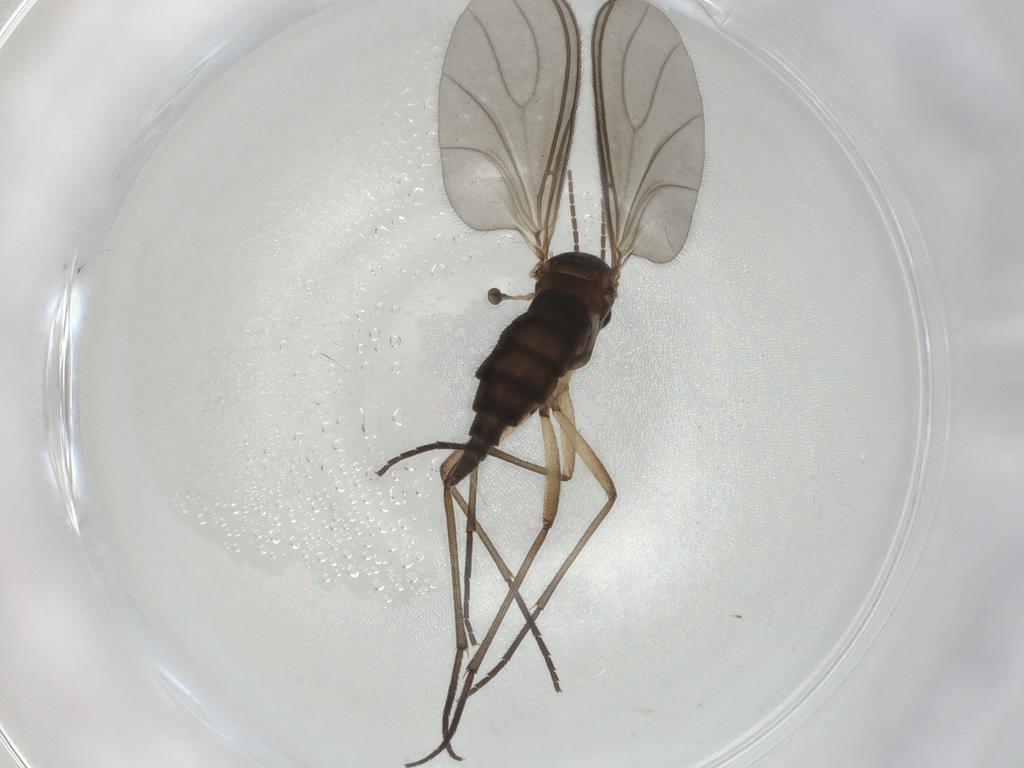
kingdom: Animalia
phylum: Arthropoda
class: Insecta
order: Diptera
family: Sciaridae
